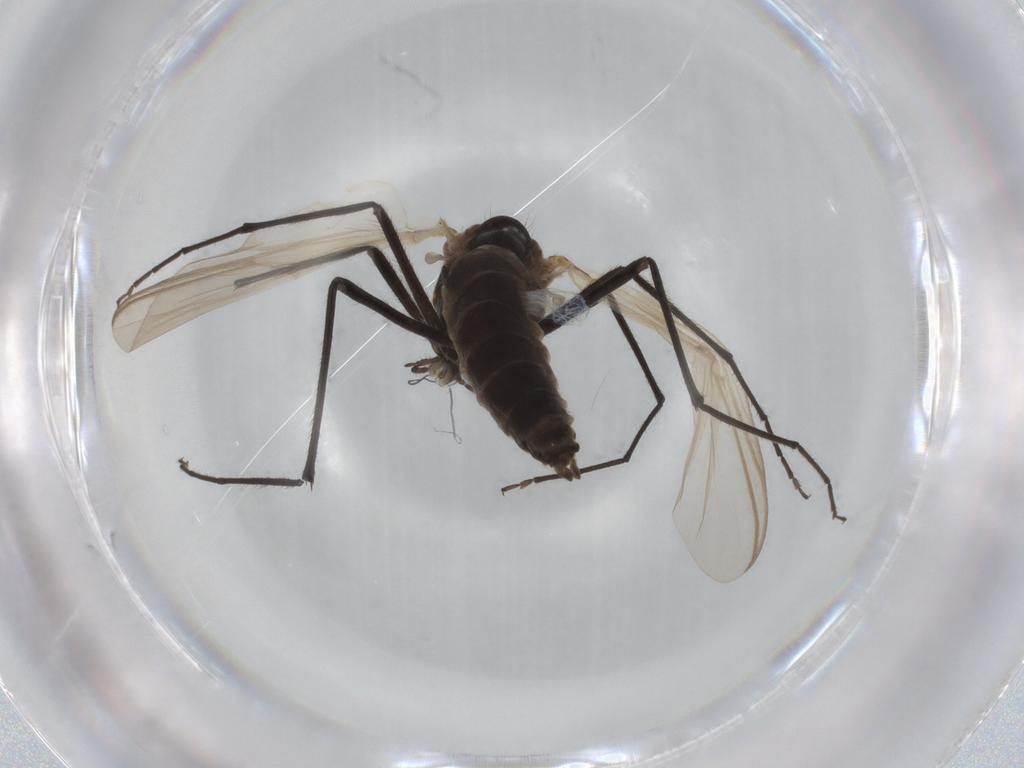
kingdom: Animalia
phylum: Arthropoda
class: Insecta
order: Diptera
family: Chironomidae
